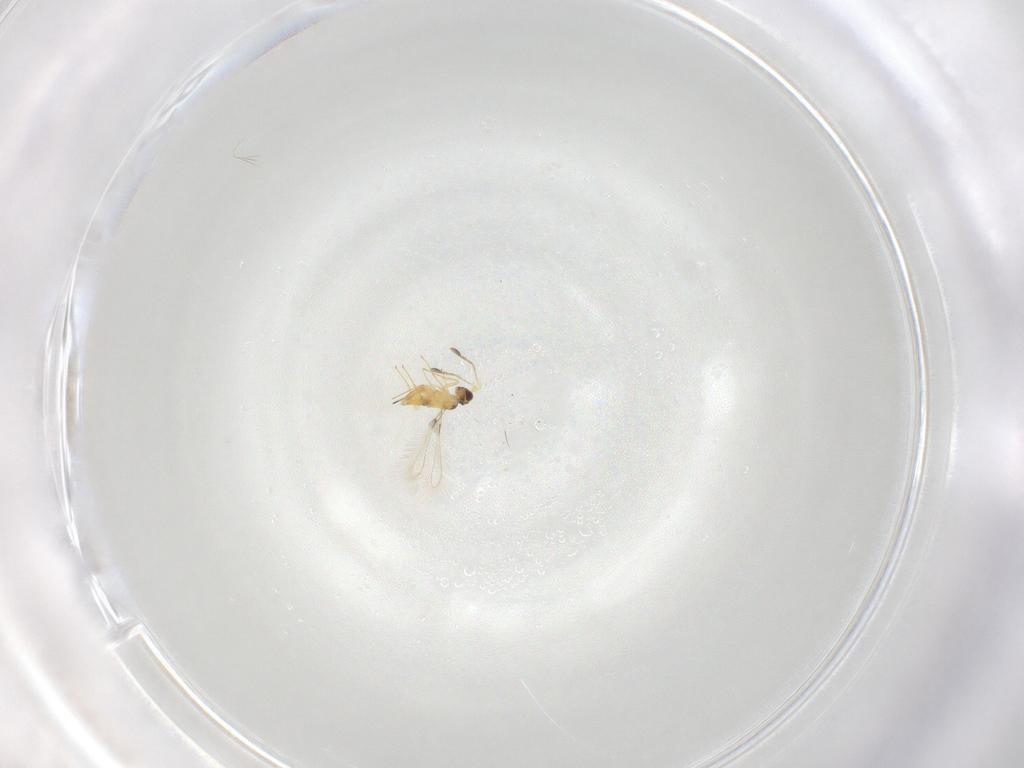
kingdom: Animalia
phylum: Arthropoda
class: Insecta
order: Hymenoptera
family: Mymaridae
